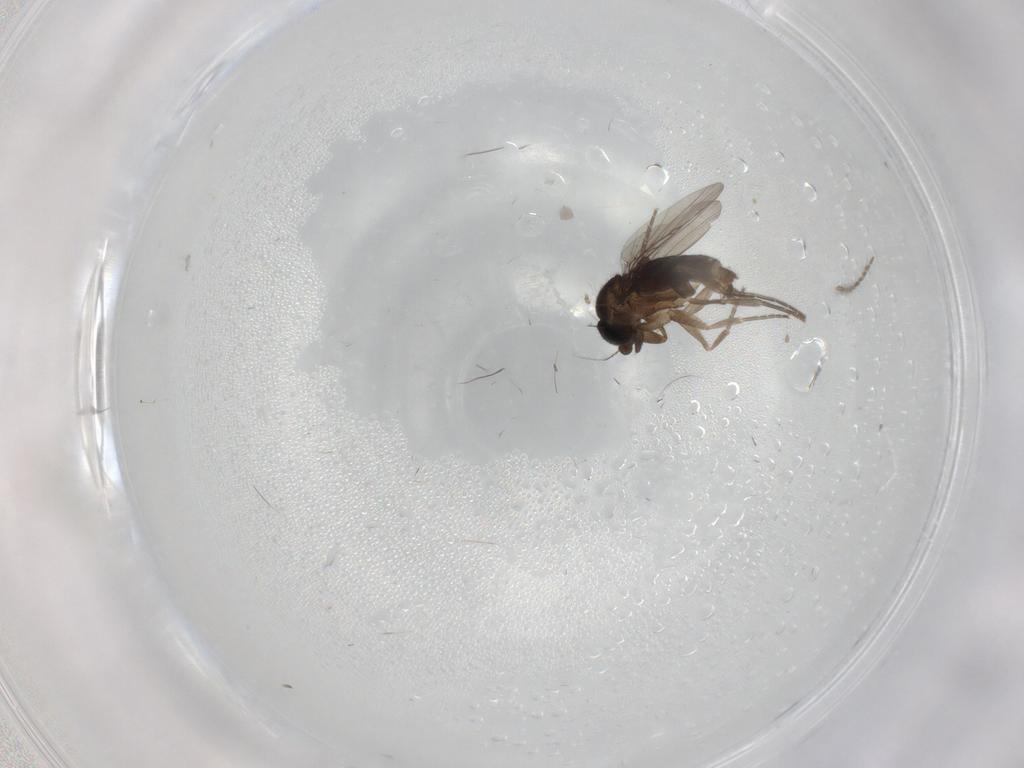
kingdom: Animalia
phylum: Arthropoda
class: Insecta
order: Diptera
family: Phoridae
